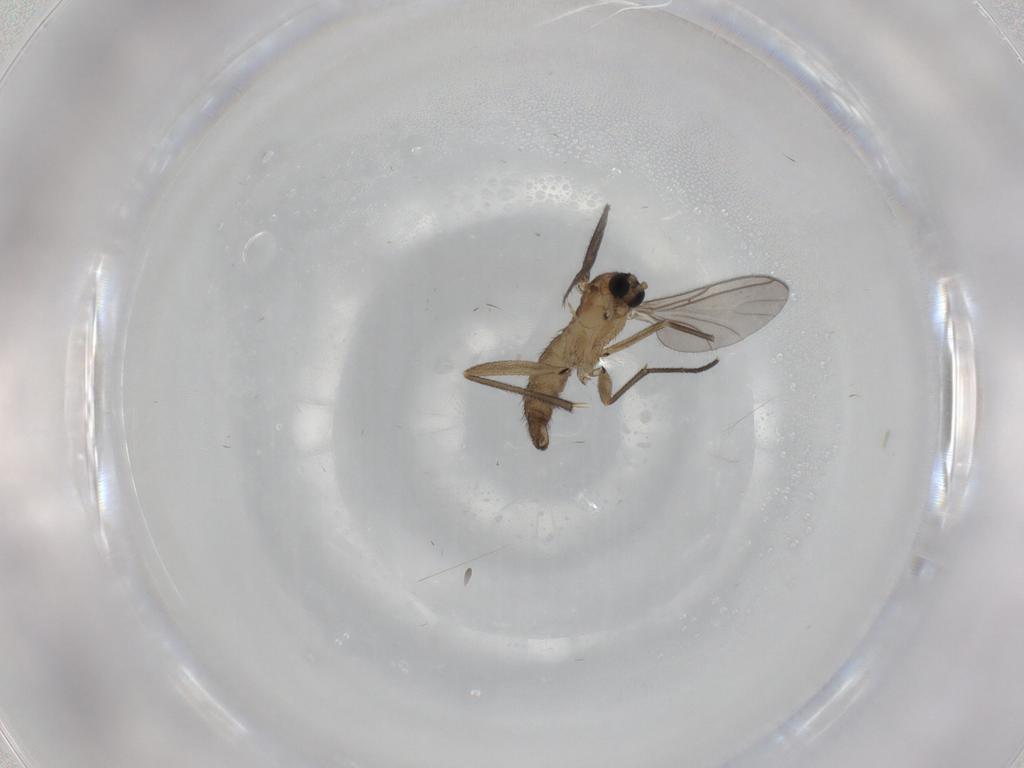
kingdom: Animalia
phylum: Arthropoda
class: Insecta
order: Diptera
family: Sciaridae
